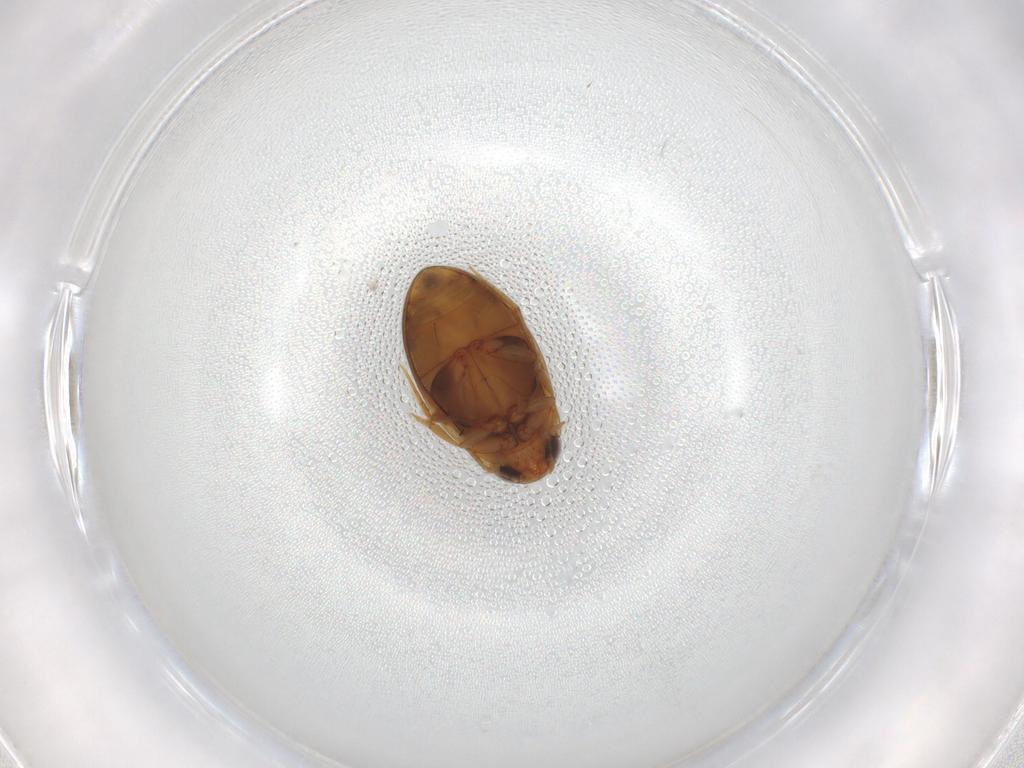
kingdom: Animalia
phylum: Arthropoda
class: Insecta
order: Coleoptera
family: Dytiscidae
